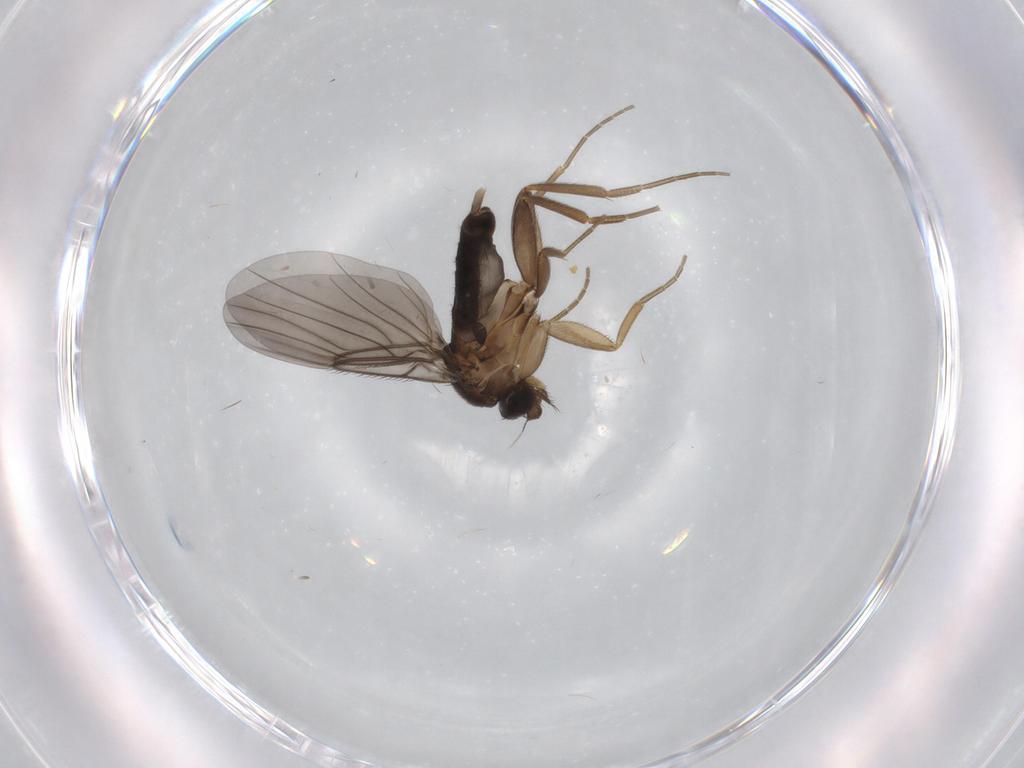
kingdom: Animalia
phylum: Arthropoda
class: Insecta
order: Diptera
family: Phoridae
